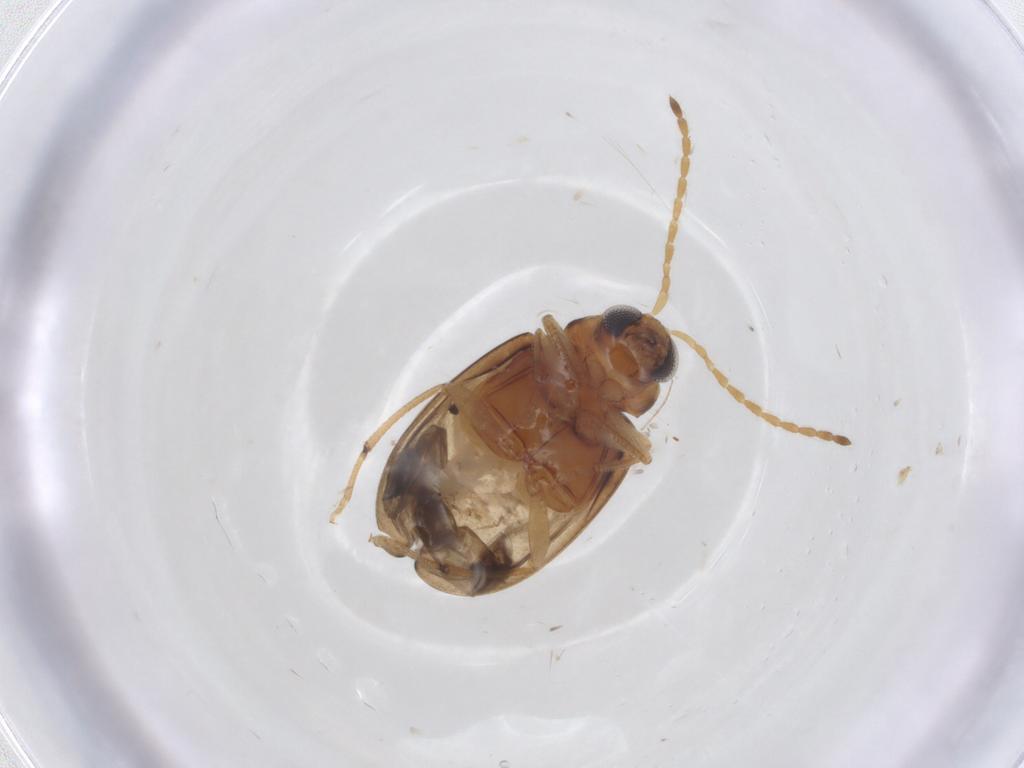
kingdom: Animalia
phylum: Arthropoda
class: Insecta
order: Coleoptera
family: Chrysomelidae
